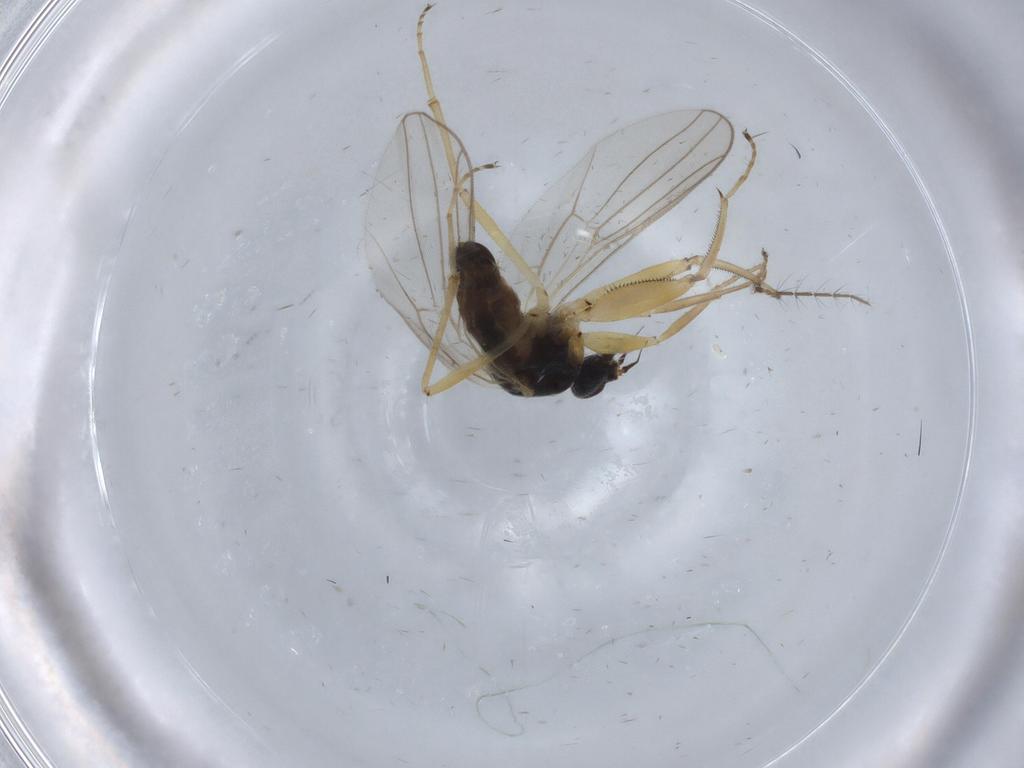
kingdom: Animalia
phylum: Arthropoda
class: Insecta
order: Diptera
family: Hybotidae
